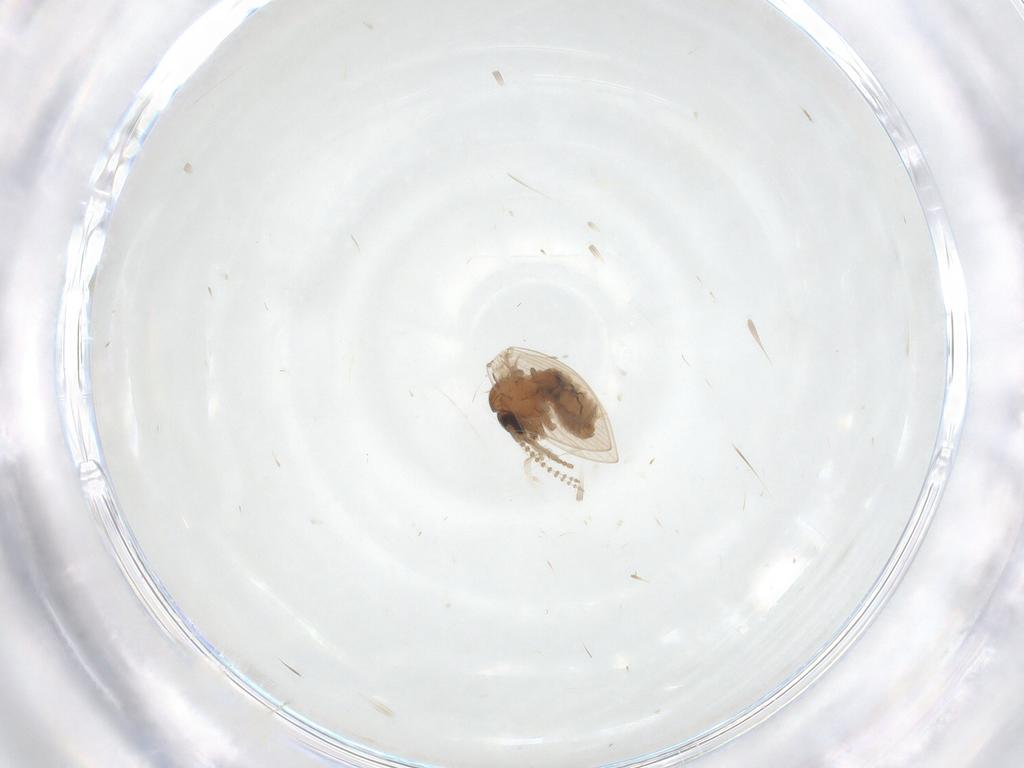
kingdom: Animalia
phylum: Arthropoda
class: Insecta
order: Diptera
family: Psychodidae
